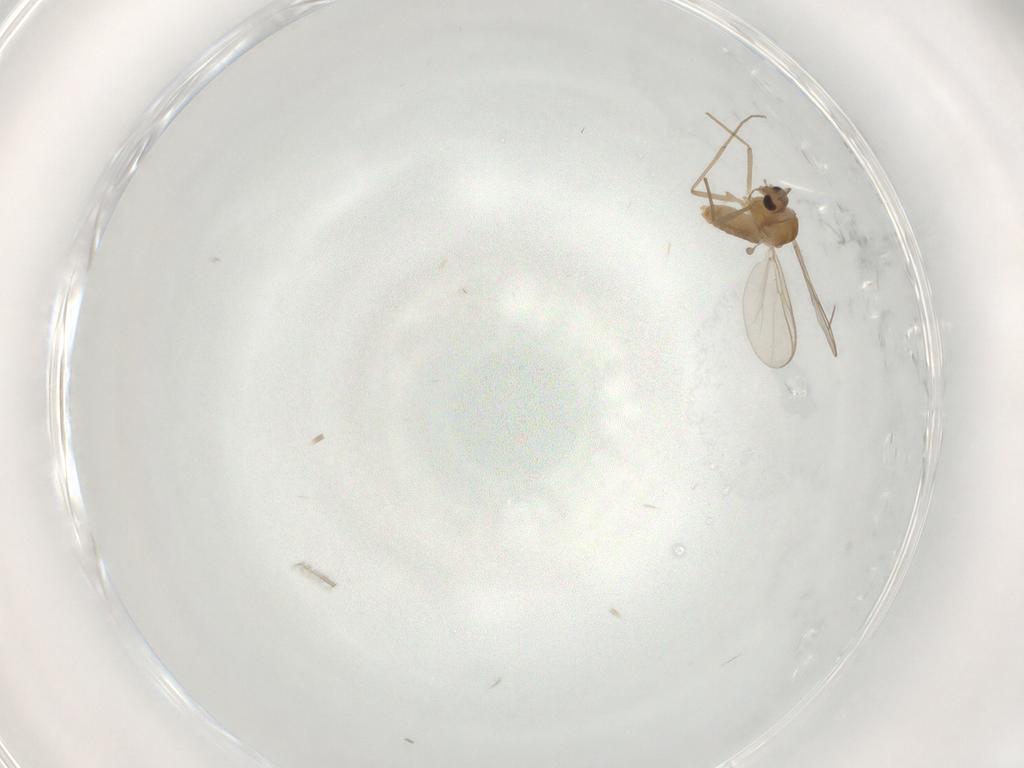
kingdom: Animalia
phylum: Arthropoda
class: Insecta
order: Diptera
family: Chironomidae
